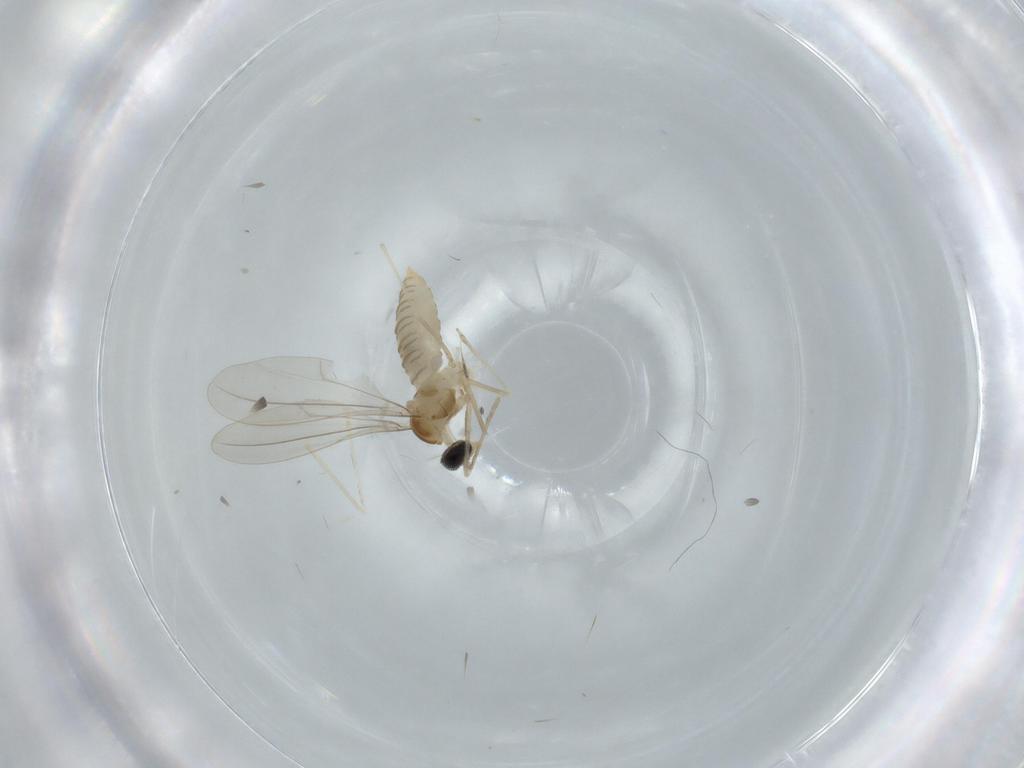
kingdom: Animalia
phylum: Arthropoda
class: Insecta
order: Diptera
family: Cecidomyiidae
